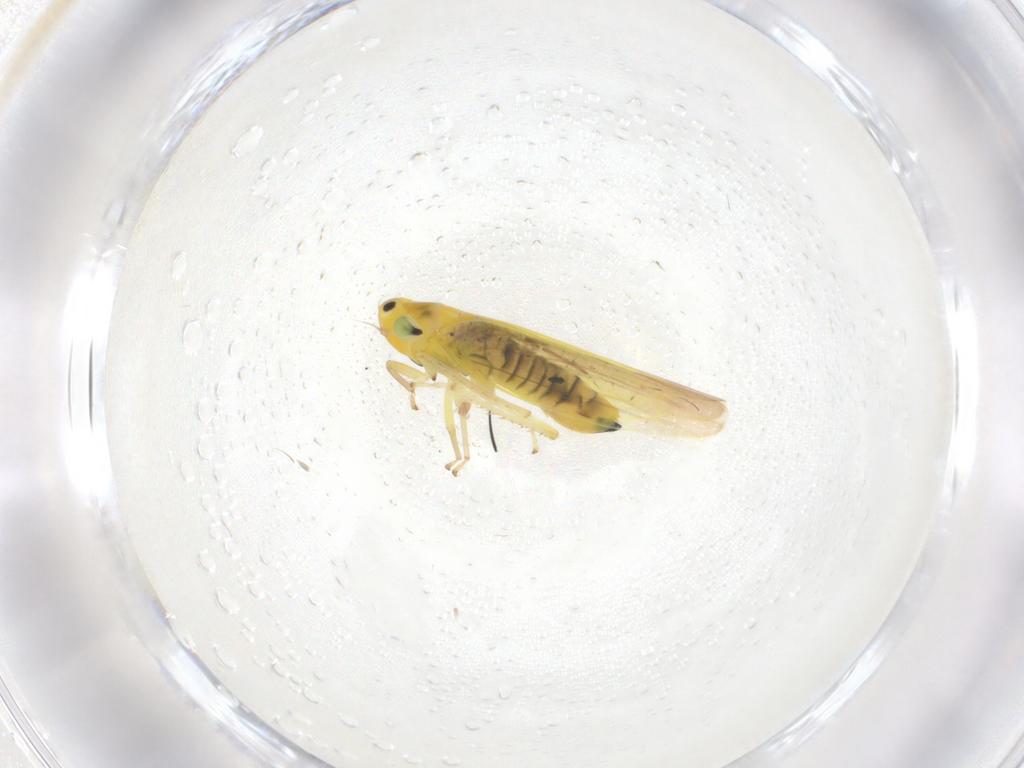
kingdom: Animalia
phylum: Arthropoda
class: Insecta
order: Hemiptera
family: Cicadellidae
